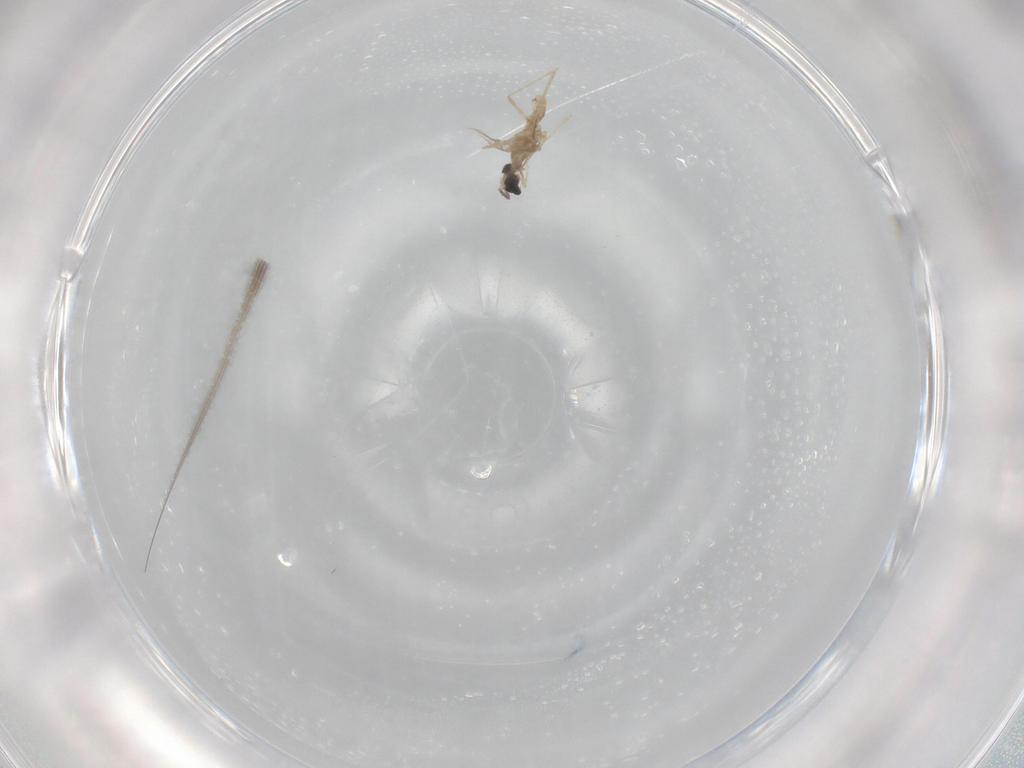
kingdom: Animalia
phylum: Arthropoda
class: Insecta
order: Diptera
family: Cecidomyiidae
